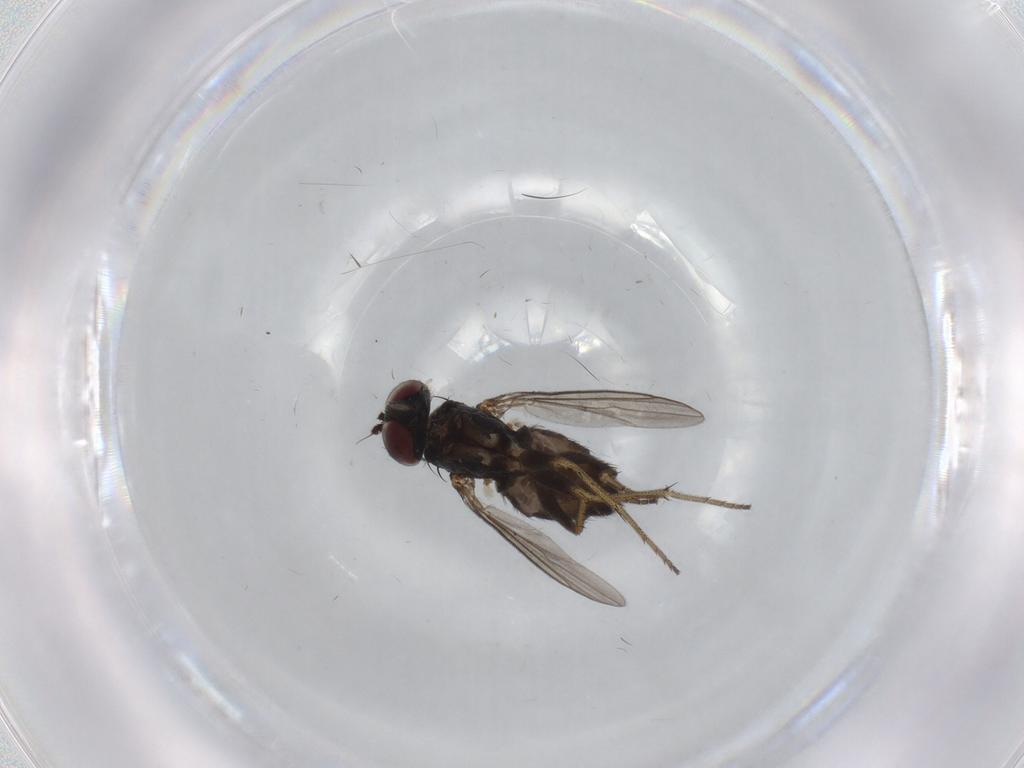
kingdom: Animalia
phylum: Arthropoda
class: Insecta
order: Diptera
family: Dolichopodidae
